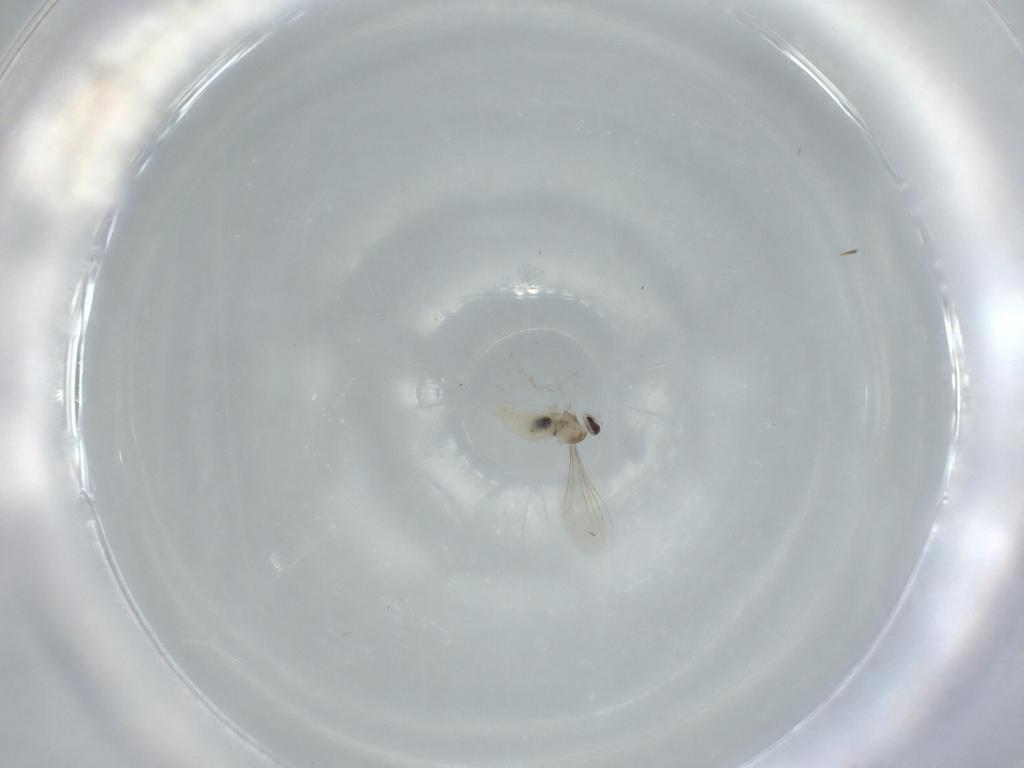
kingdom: Animalia
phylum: Arthropoda
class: Insecta
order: Diptera
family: Cecidomyiidae
